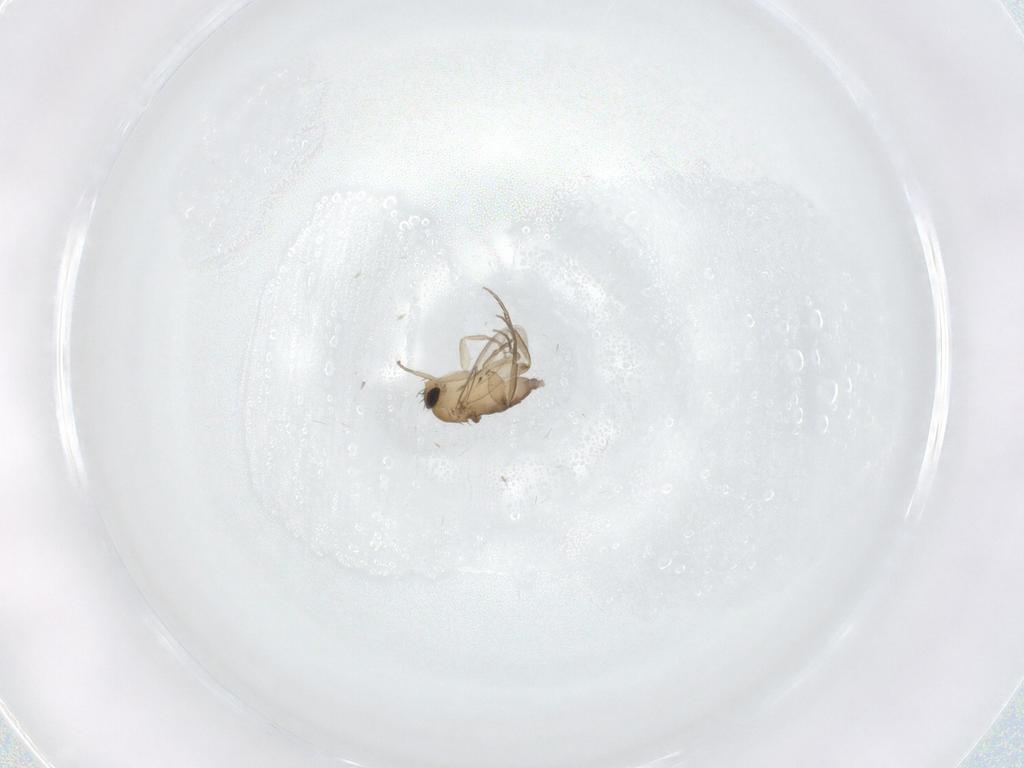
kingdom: Animalia
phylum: Arthropoda
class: Insecta
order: Diptera
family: Phoridae
